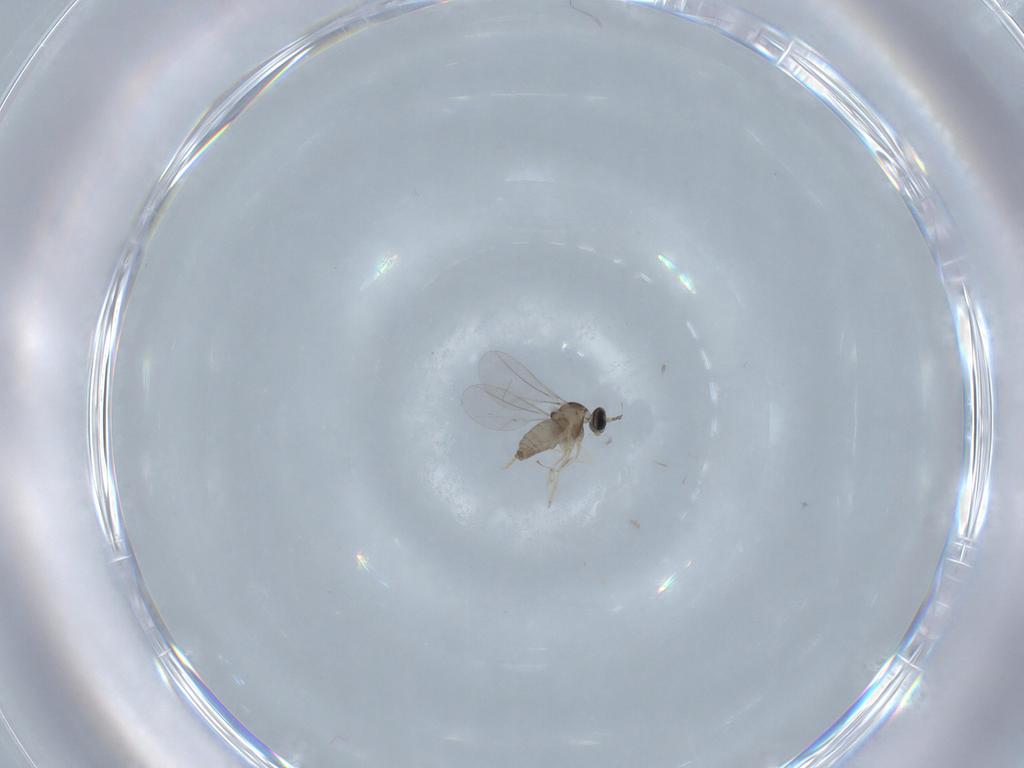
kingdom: Animalia
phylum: Arthropoda
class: Insecta
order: Diptera
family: Cecidomyiidae
